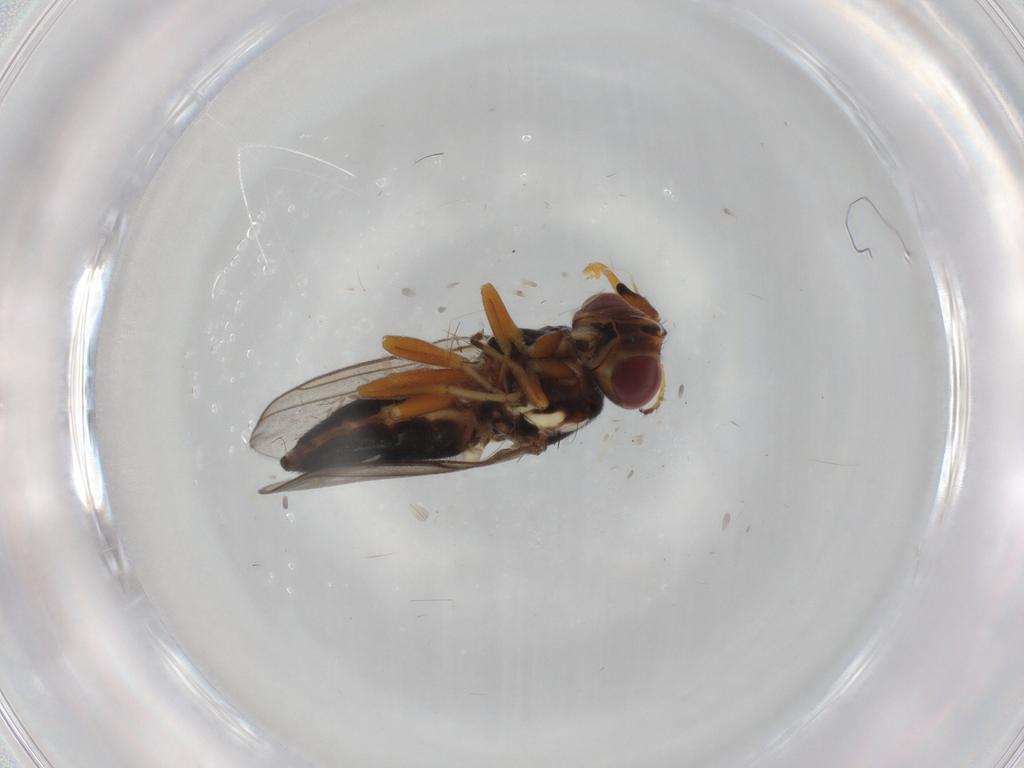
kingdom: Animalia
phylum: Arthropoda
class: Insecta
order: Diptera
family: Chloropidae
